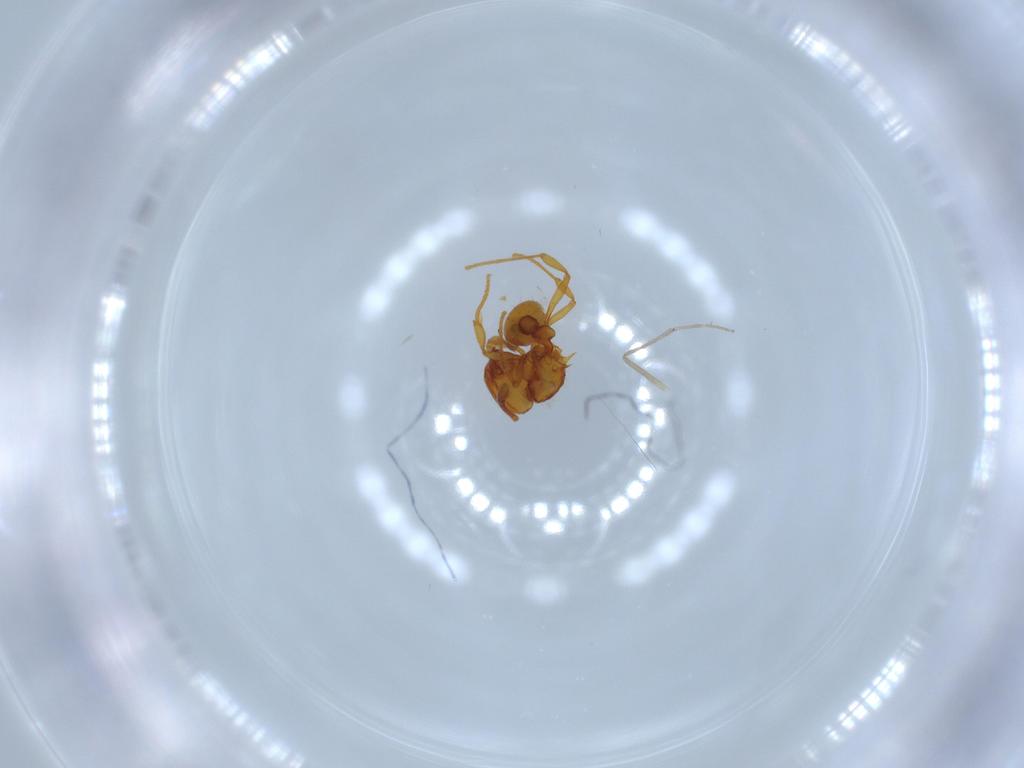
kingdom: Animalia
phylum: Arthropoda
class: Insecta
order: Hymenoptera
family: Formicidae
